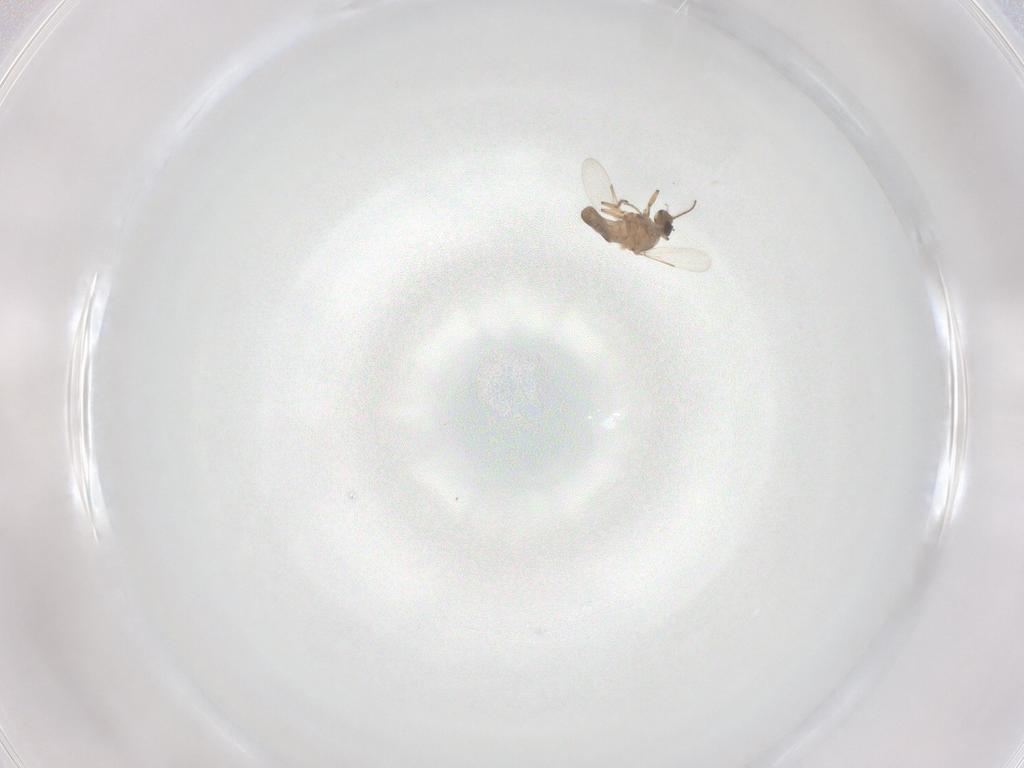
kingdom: Animalia
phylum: Arthropoda
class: Insecta
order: Diptera
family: Ceratopogonidae
